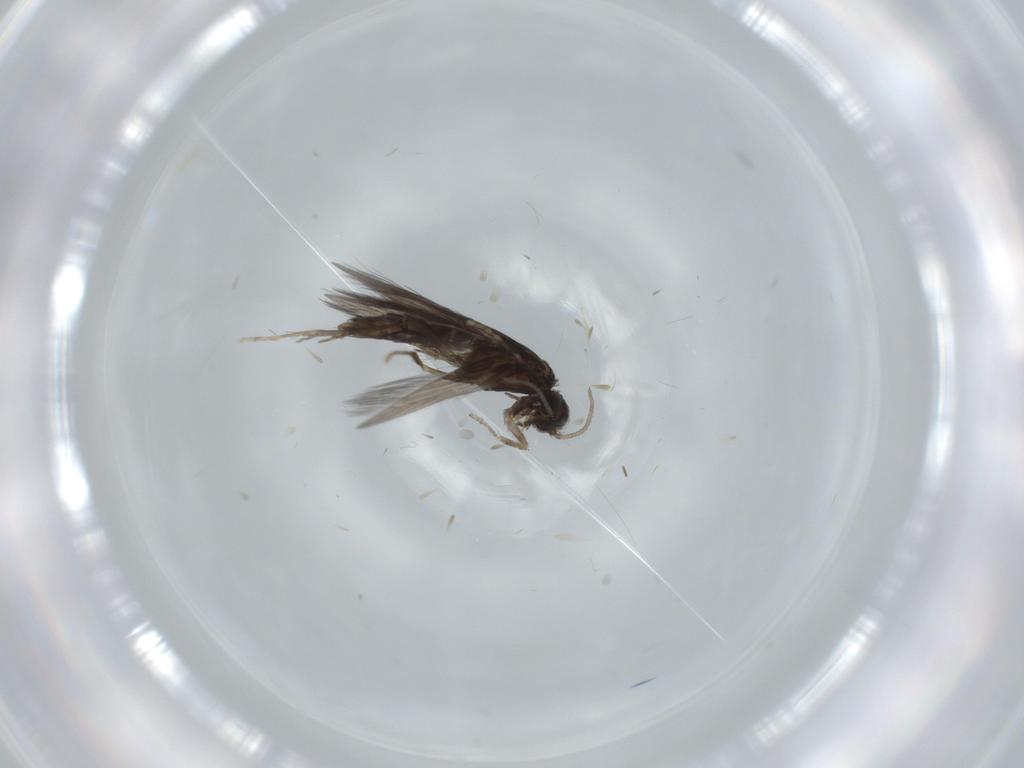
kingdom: Animalia
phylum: Arthropoda
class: Insecta
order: Trichoptera
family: Hydroptilidae
